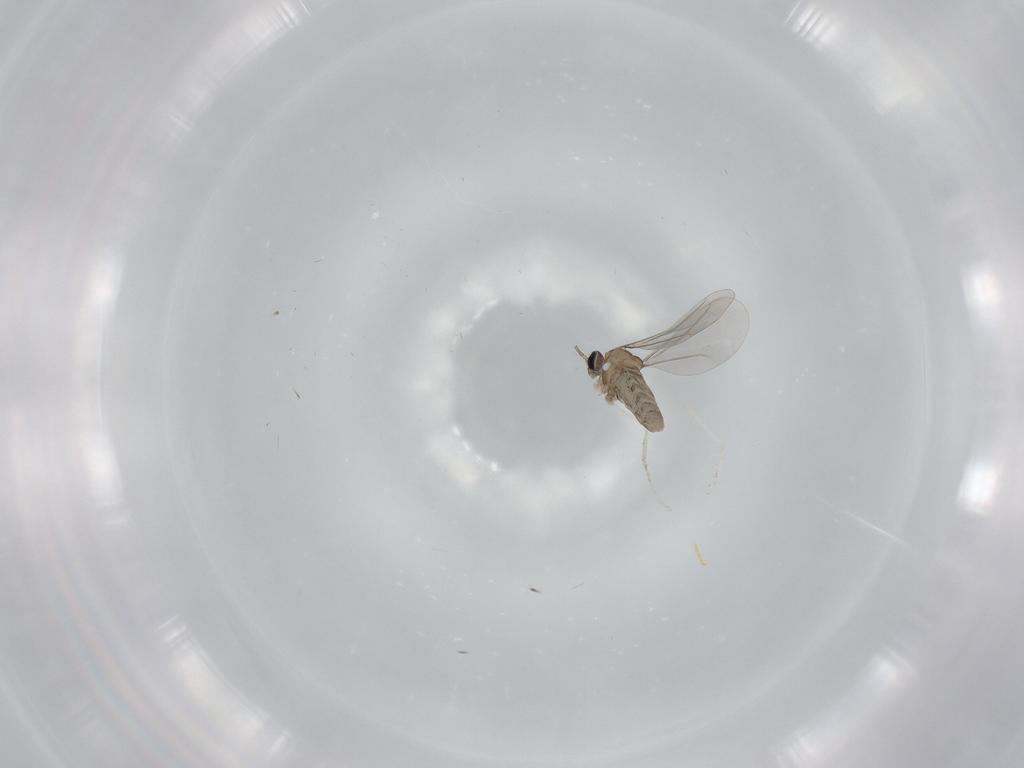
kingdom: Animalia
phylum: Arthropoda
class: Insecta
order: Diptera
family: Cecidomyiidae
